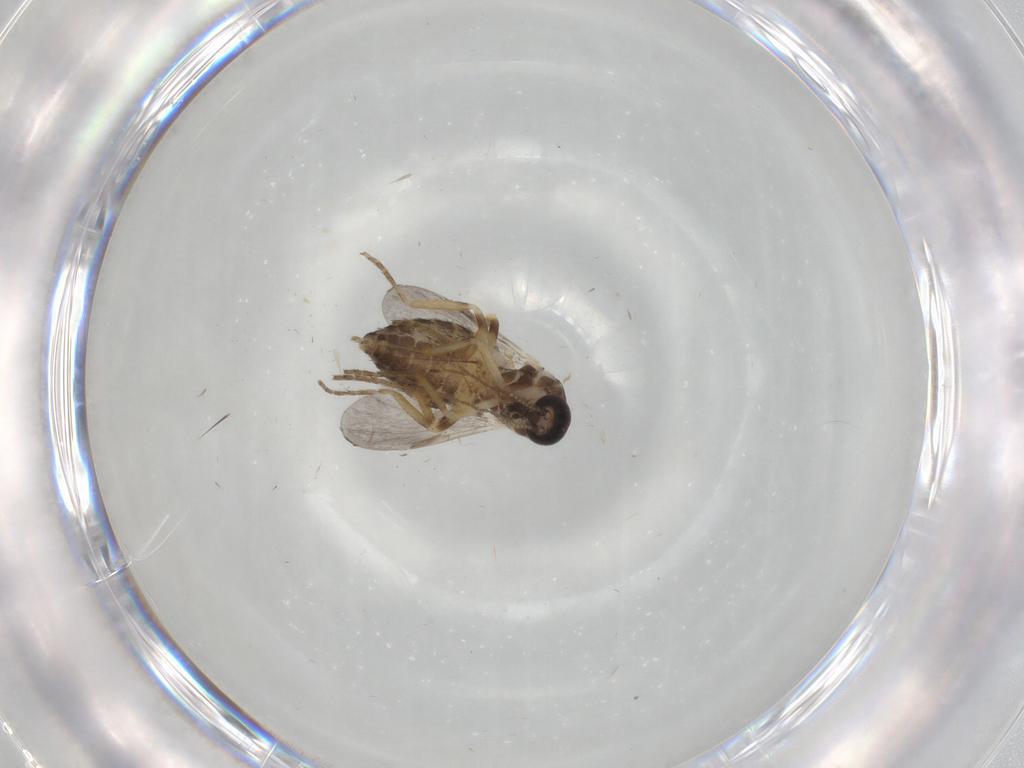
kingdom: Animalia
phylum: Arthropoda
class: Insecta
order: Diptera
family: Ceratopogonidae
